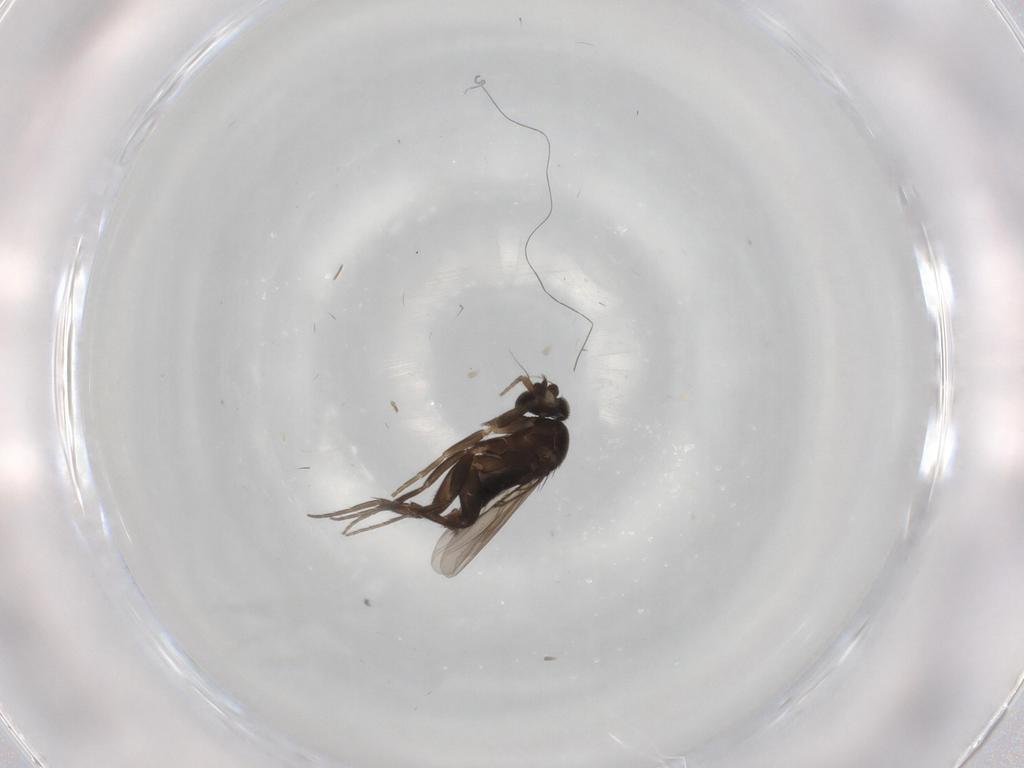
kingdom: Animalia
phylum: Arthropoda
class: Insecta
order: Diptera
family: Phoridae
